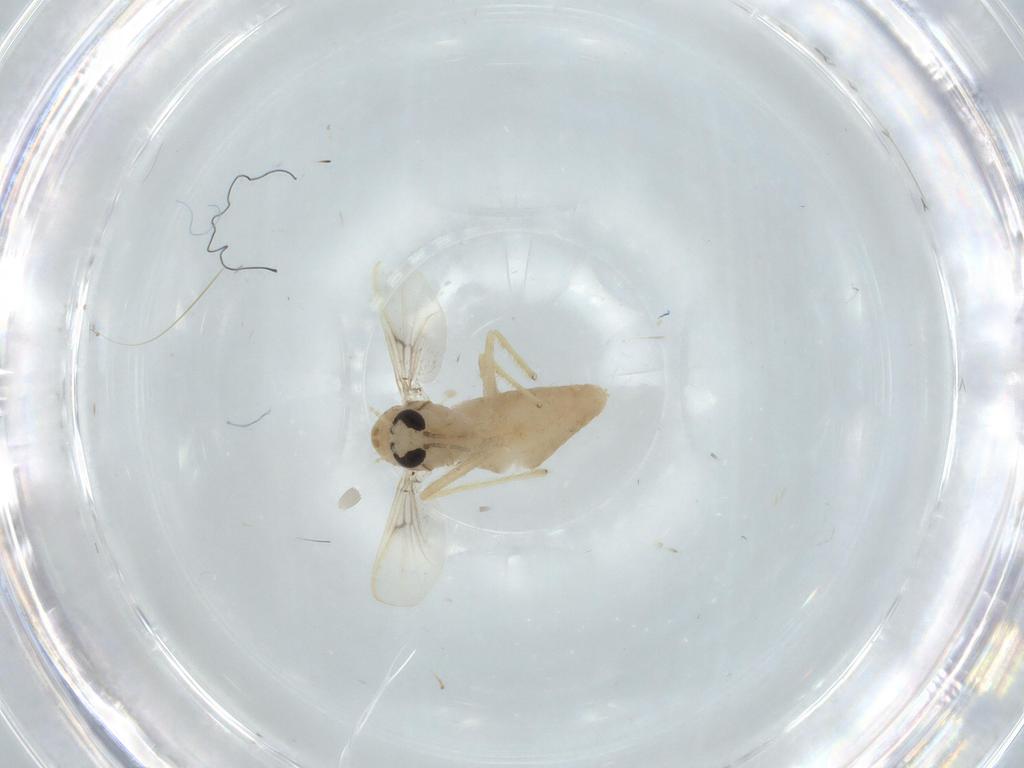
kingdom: Animalia
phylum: Arthropoda
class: Insecta
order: Diptera
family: Chironomidae
